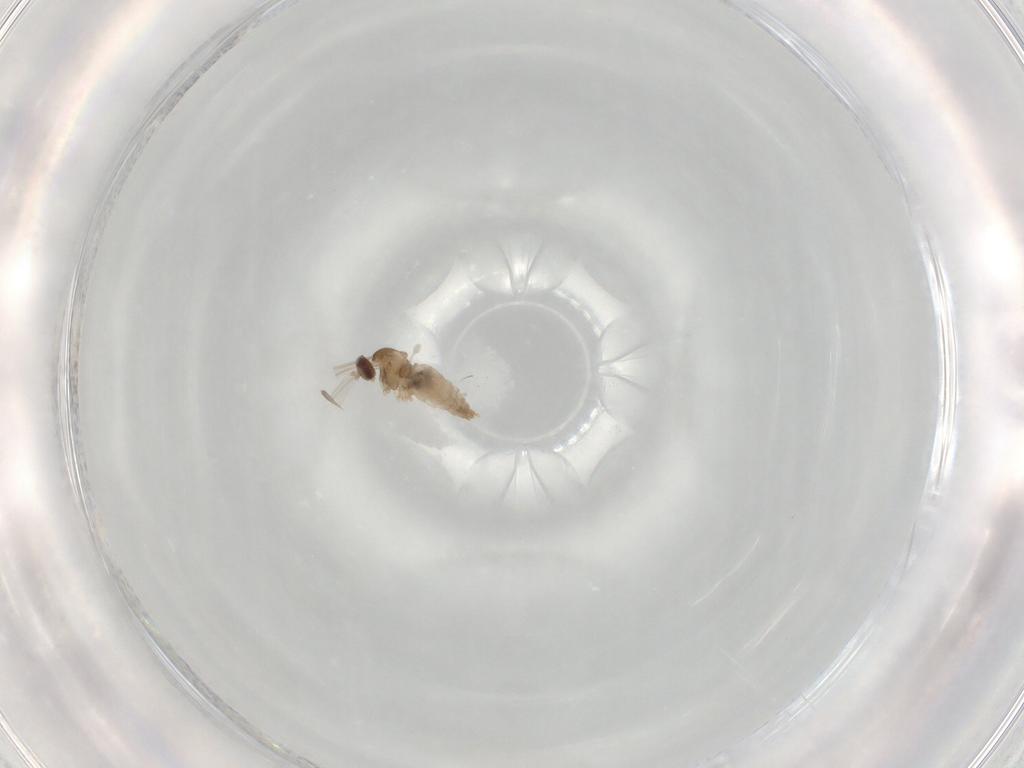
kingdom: Animalia
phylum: Arthropoda
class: Insecta
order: Diptera
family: Cecidomyiidae
